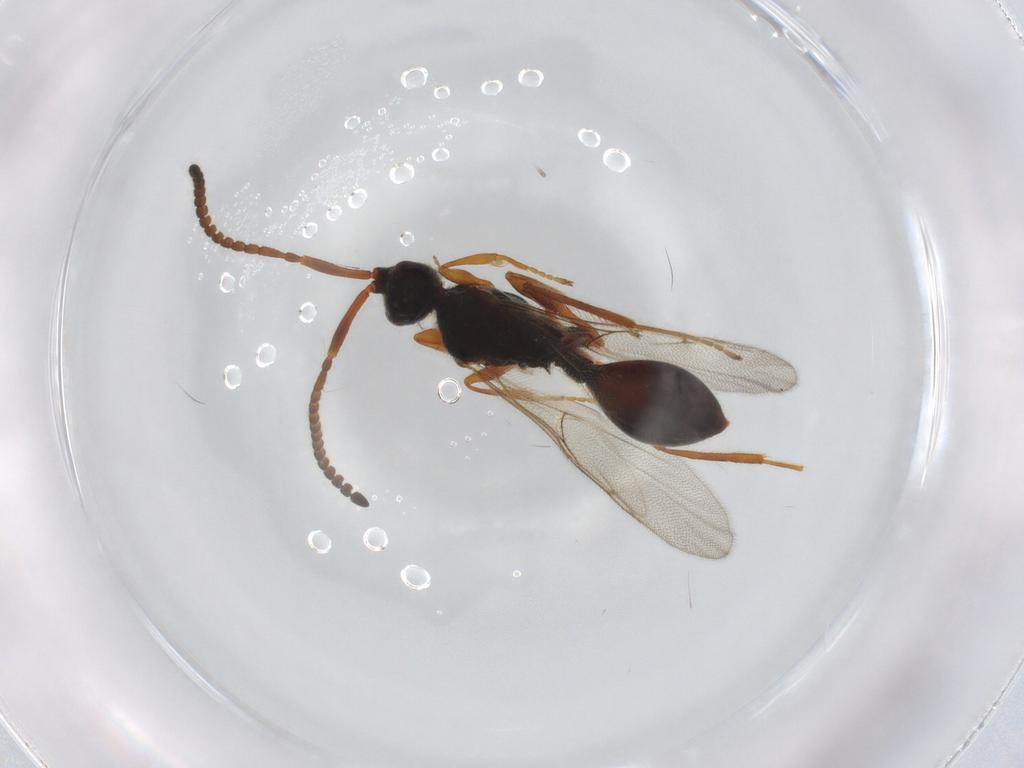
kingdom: Animalia
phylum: Arthropoda
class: Insecta
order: Hymenoptera
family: Diapriidae
